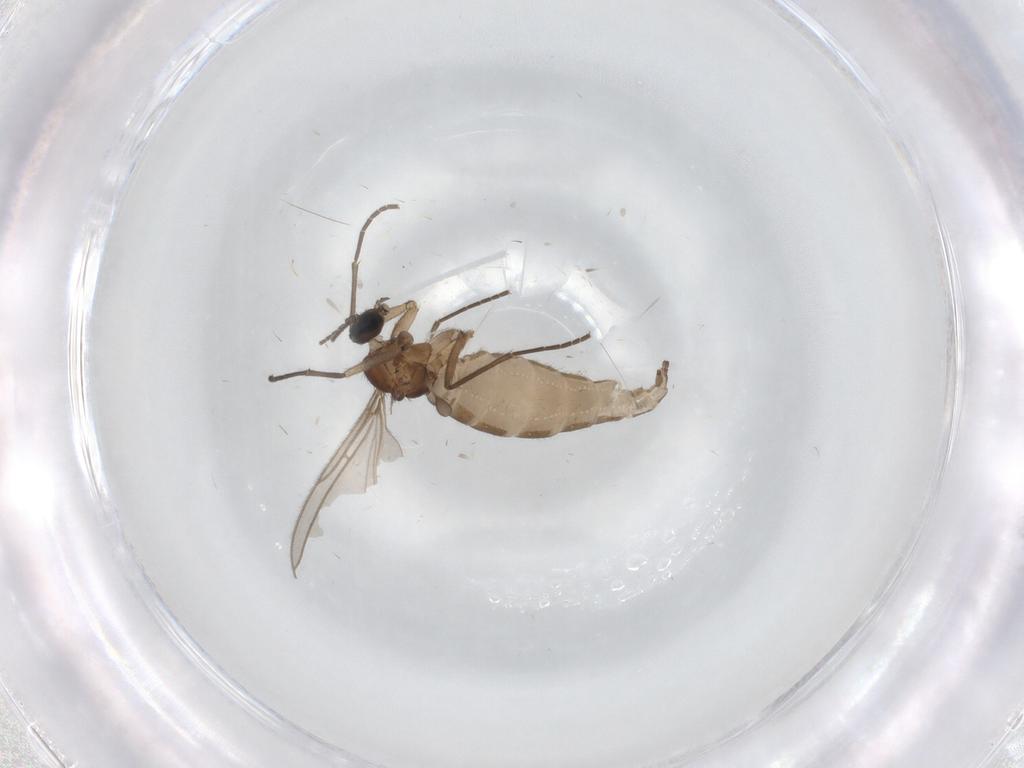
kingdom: Animalia
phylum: Arthropoda
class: Insecta
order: Diptera
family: Sciaridae
